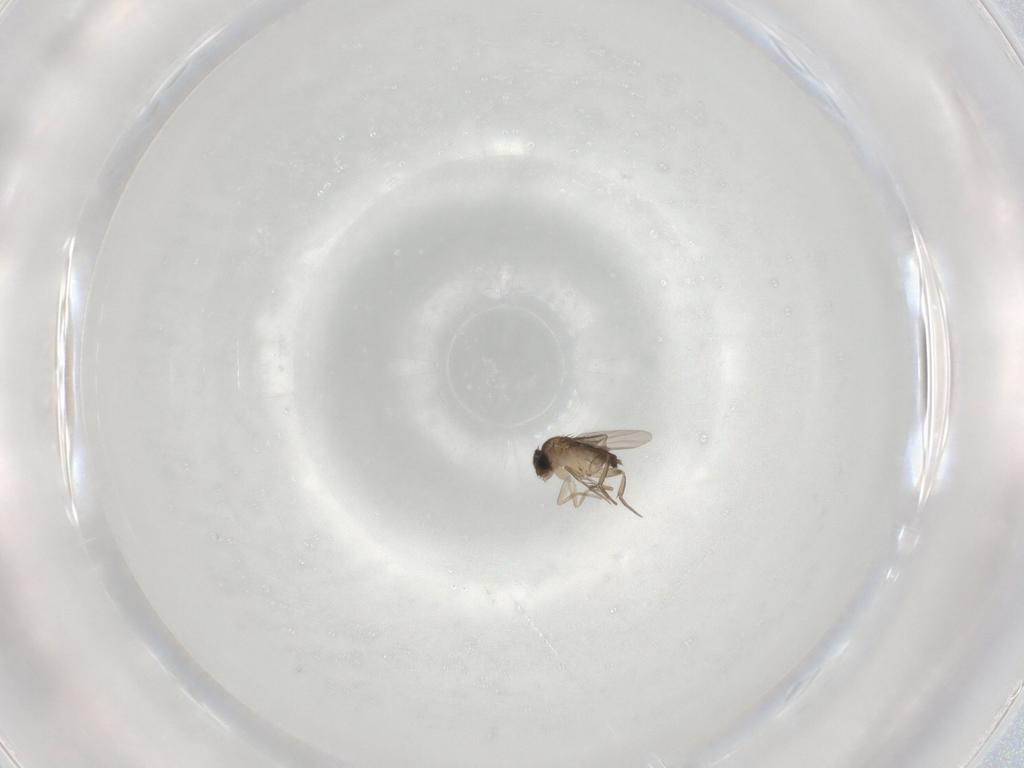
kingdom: Animalia
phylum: Arthropoda
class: Insecta
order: Diptera
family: Phoridae
